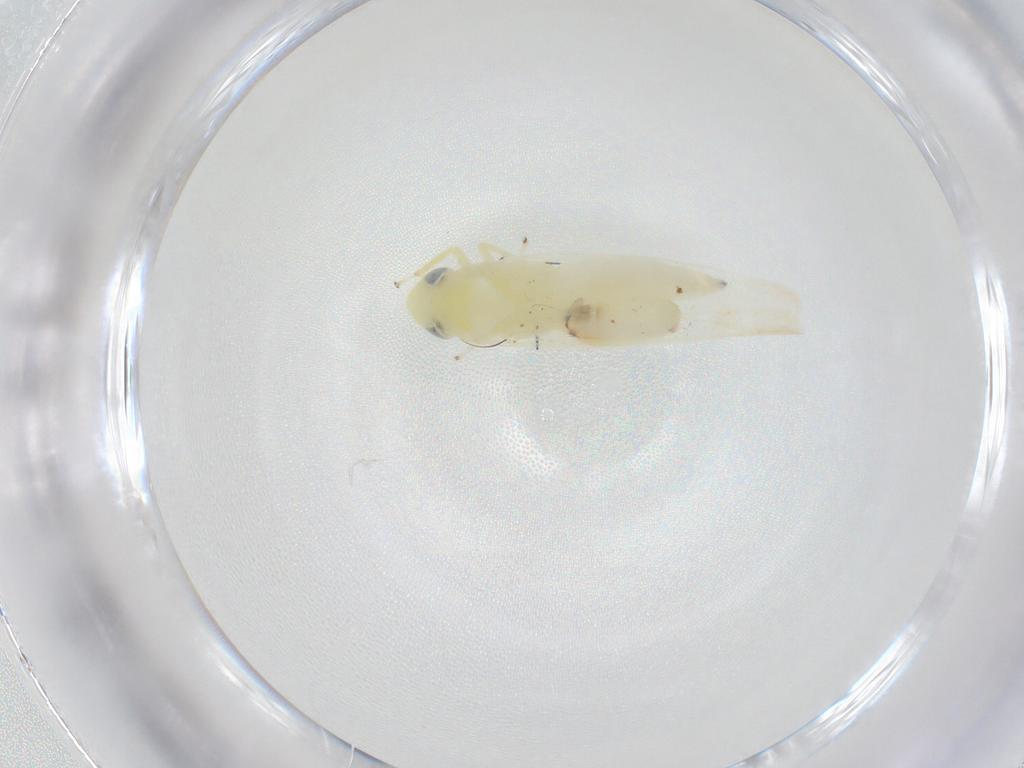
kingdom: Animalia
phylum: Arthropoda
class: Insecta
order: Hemiptera
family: Cicadellidae
